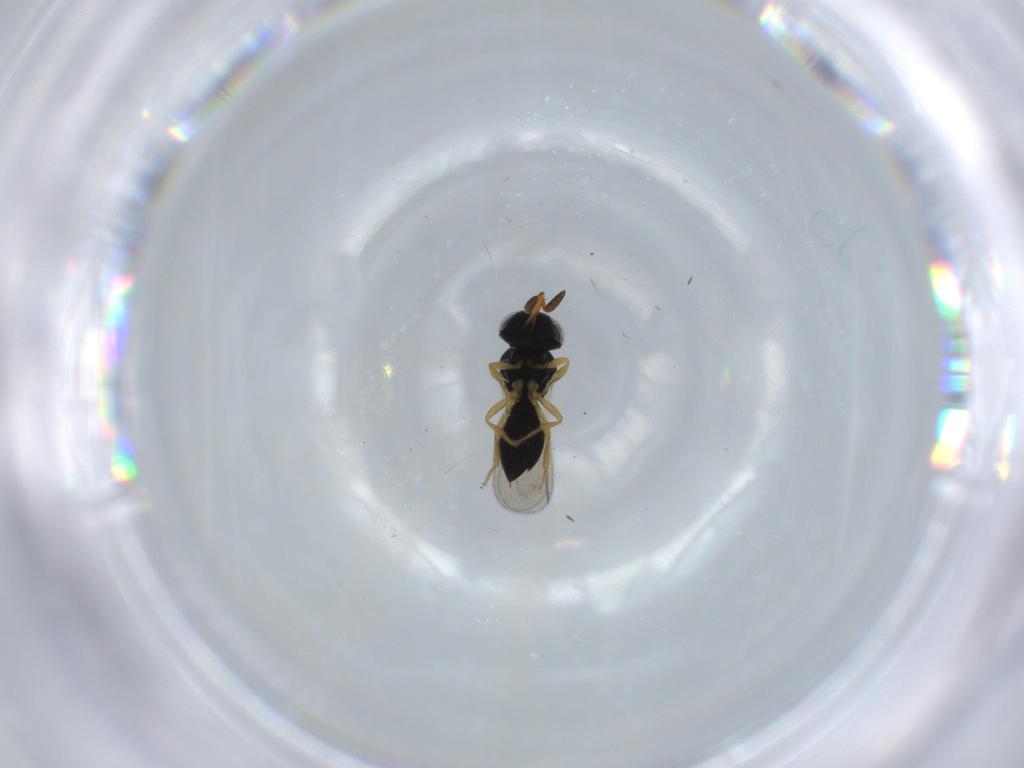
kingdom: Animalia
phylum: Arthropoda
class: Insecta
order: Hymenoptera
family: Scelionidae
